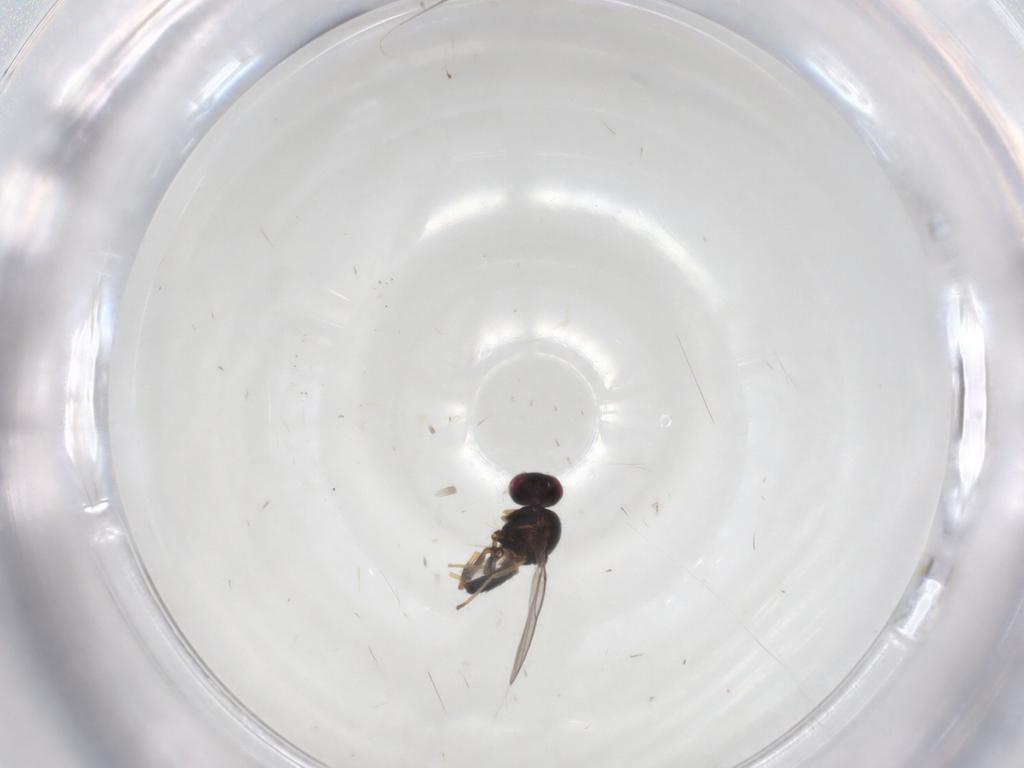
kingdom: Animalia
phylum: Arthropoda
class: Insecta
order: Diptera
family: Chloropidae
